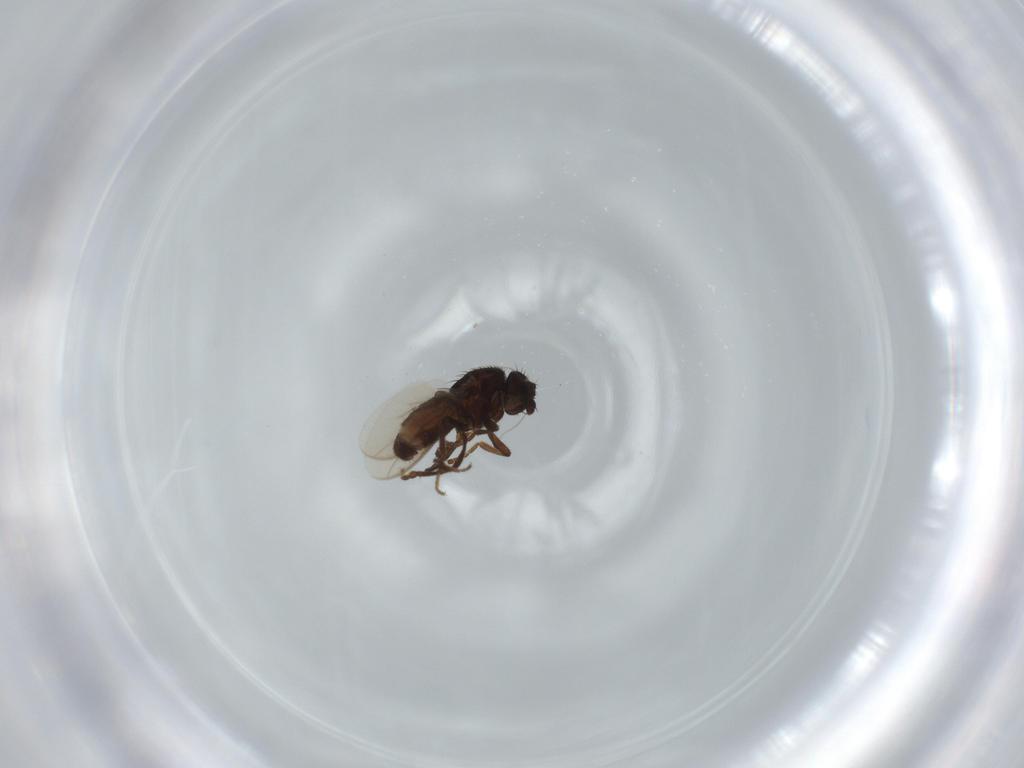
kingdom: Animalia
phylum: Arthropoda
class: Insecta
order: Diptera
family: Sphaeroceridae
